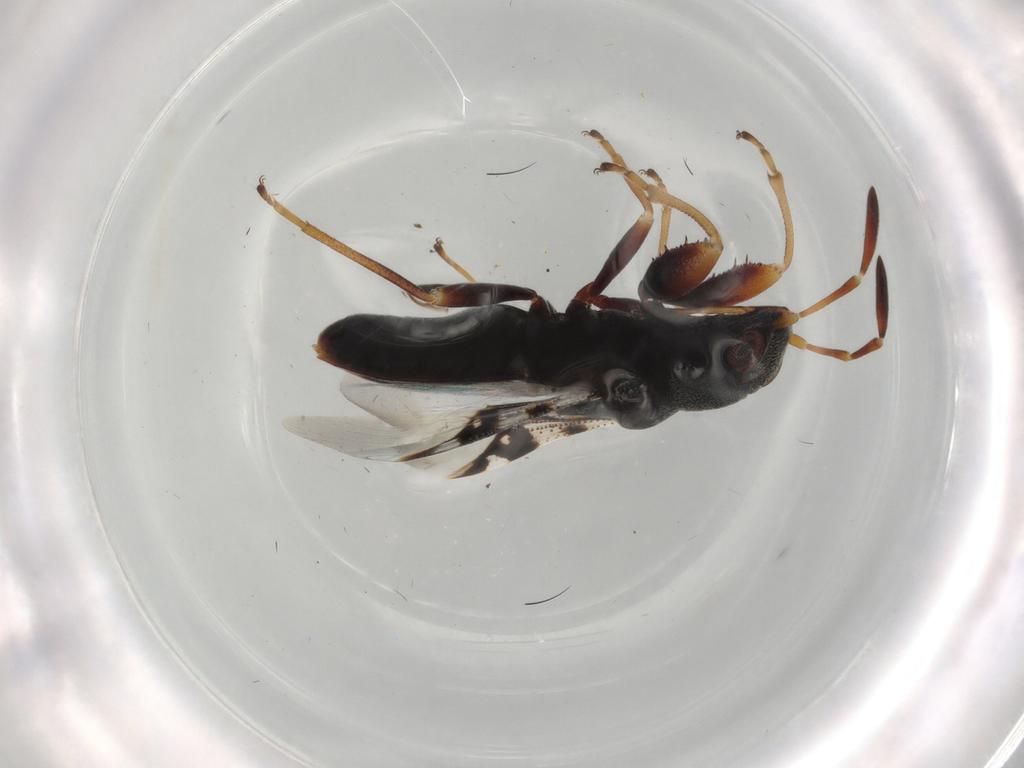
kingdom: Animalia
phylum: Arthropoda
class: Insecta
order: Hemiptera
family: Rhyparochromidae
